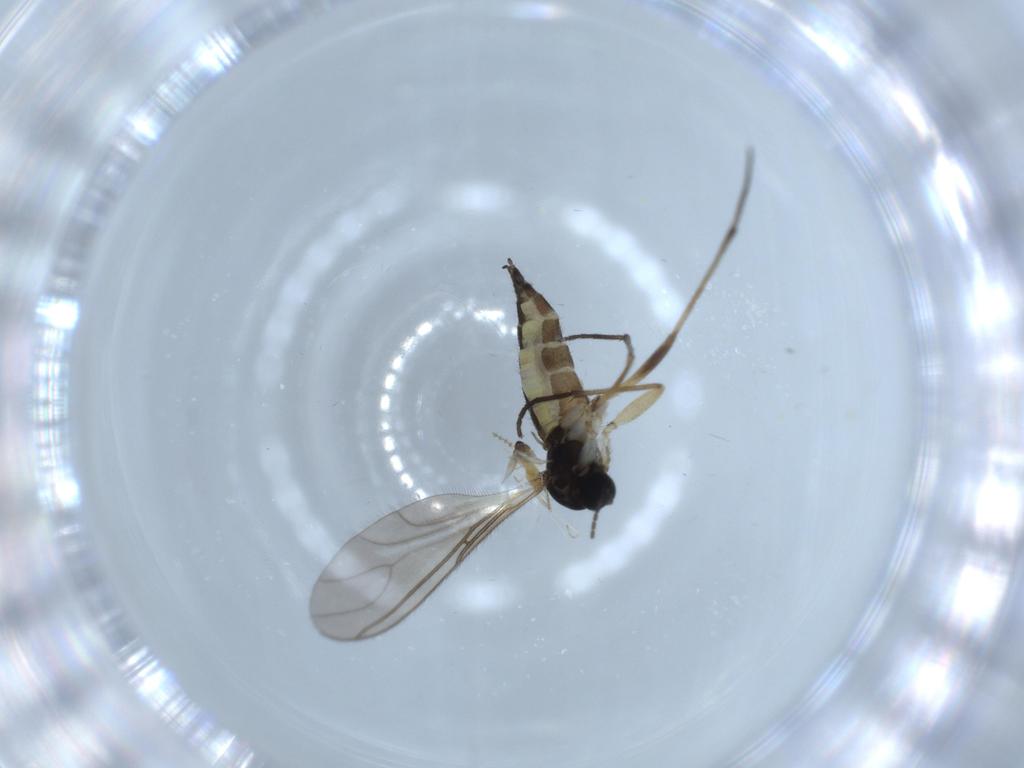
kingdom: Animalia
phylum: Arthropoda
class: Insecta
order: Diptera
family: Sciaridae
